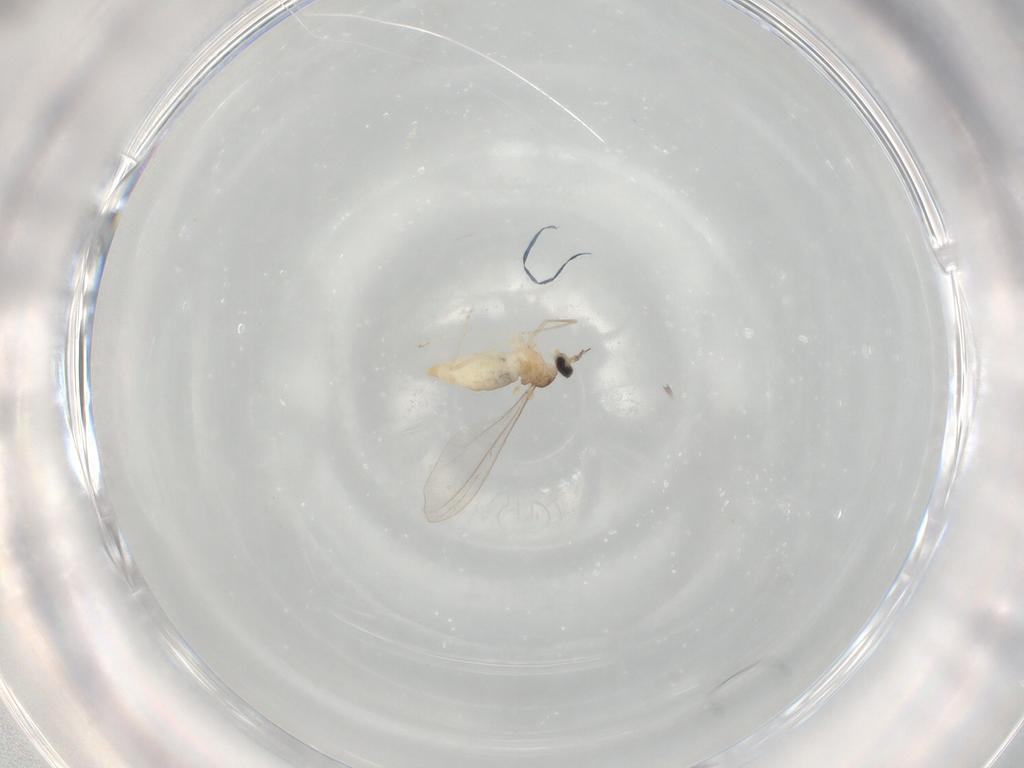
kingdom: Animalia
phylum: Arthropoda
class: Insecta
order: Diptera
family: Cecidomyiidae
